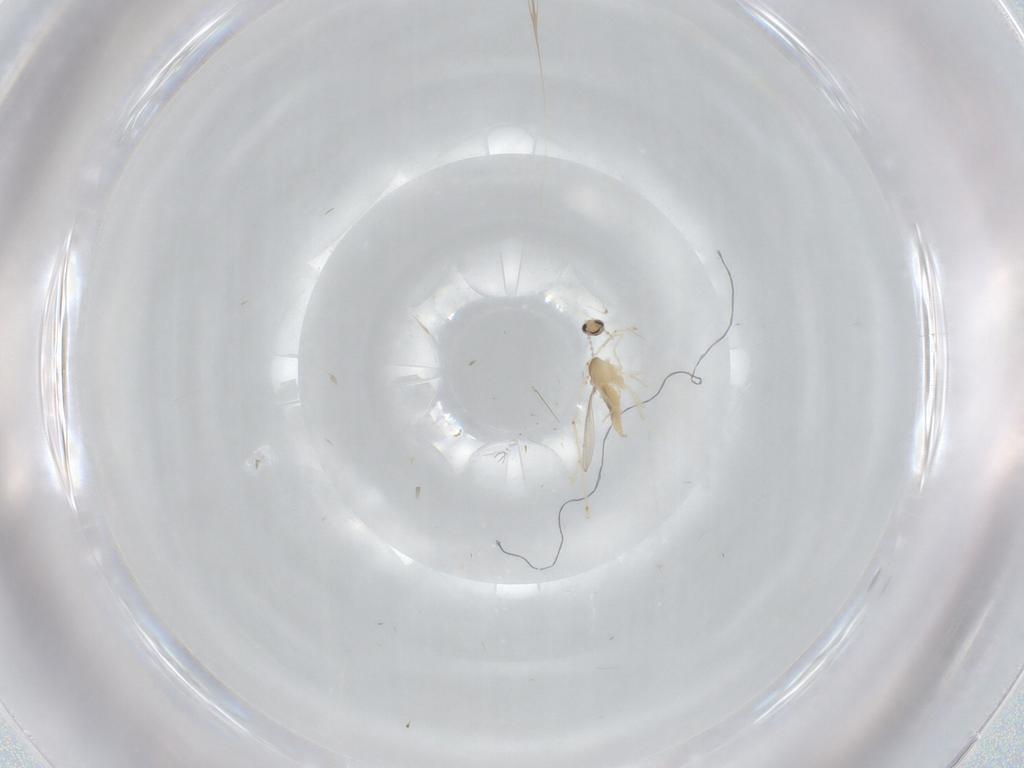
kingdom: Animalia
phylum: Arthropoda
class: Insecta
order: Diptera
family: Cecidomyiidae
